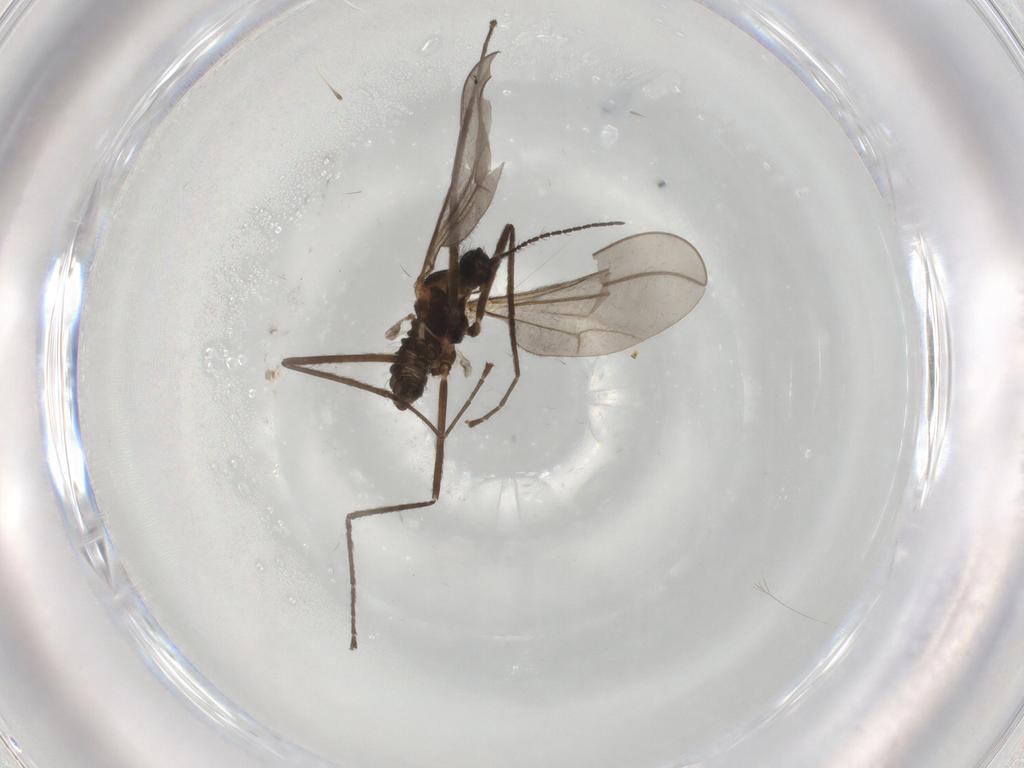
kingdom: Animalia
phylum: Arthropoda
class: Insecta
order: Diptera
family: Cecidomyiidae
